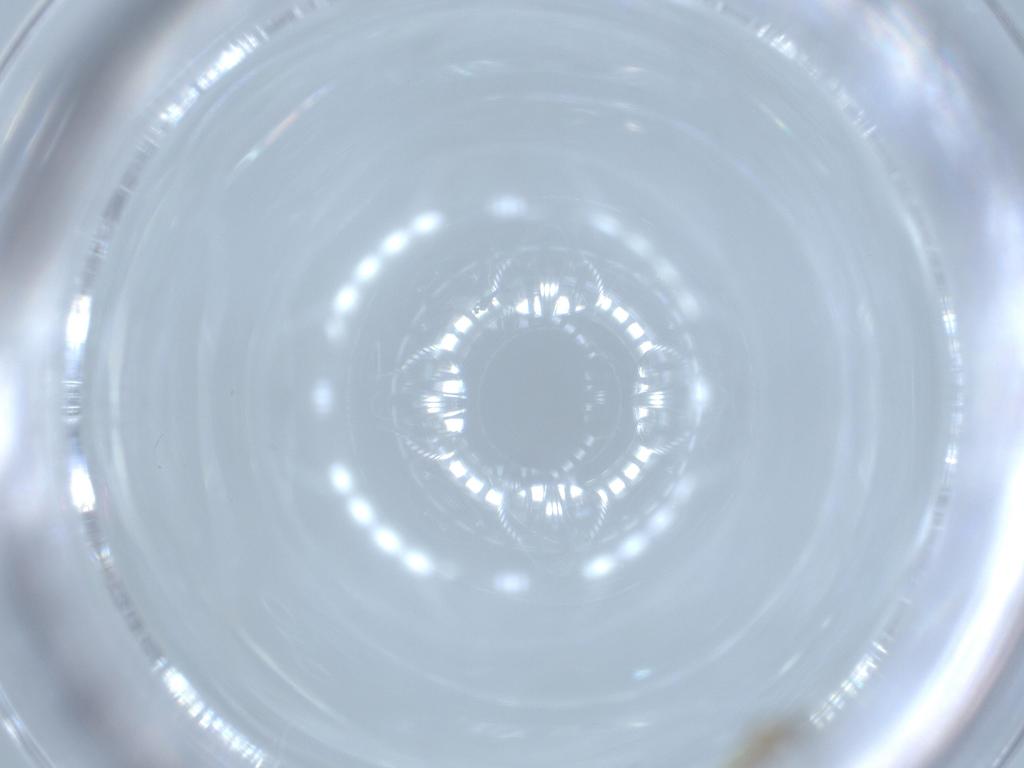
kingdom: Animalia
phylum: Arthropoda
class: Insecta
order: Diptera
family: Cecidomyiidae
